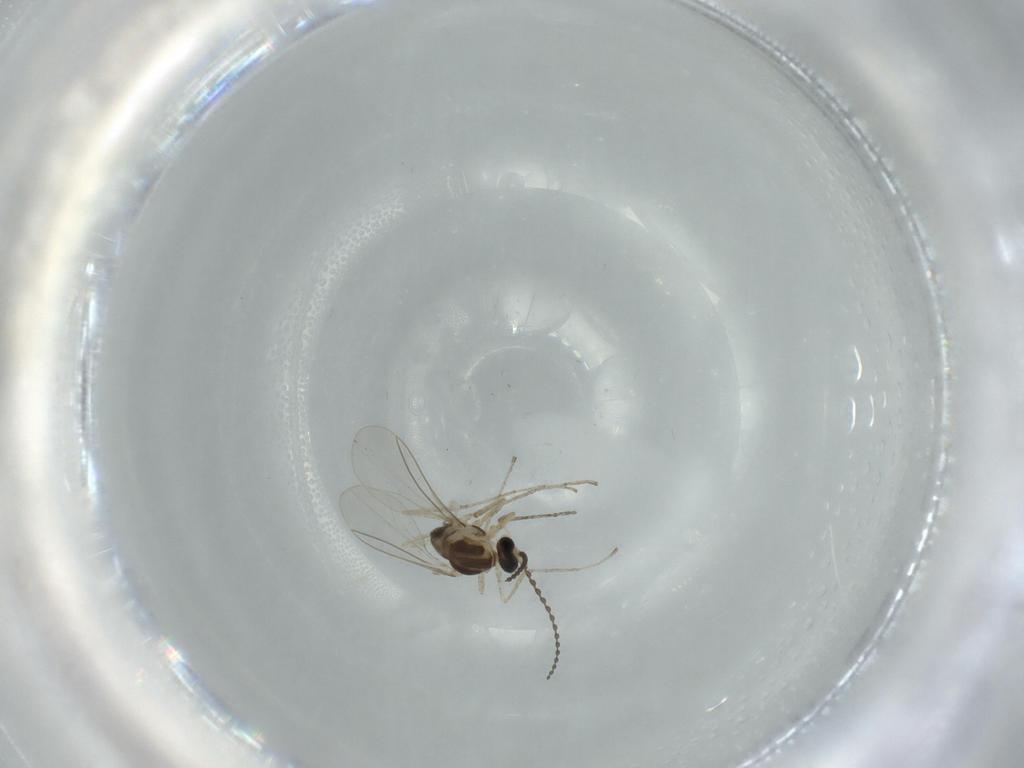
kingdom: Animalia
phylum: Arthropoda
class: Insecta
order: Diptera
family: Phoridae
